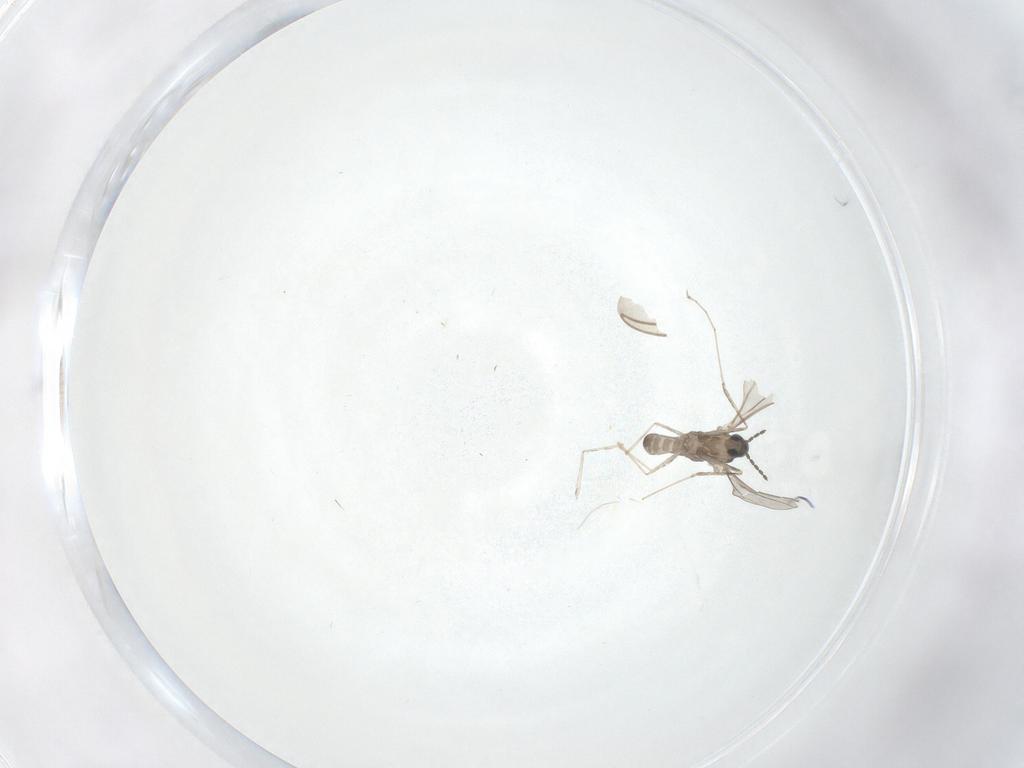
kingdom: Animalia
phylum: Arthropoda
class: Insecta
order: Diptera
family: Cecidomyiidae
